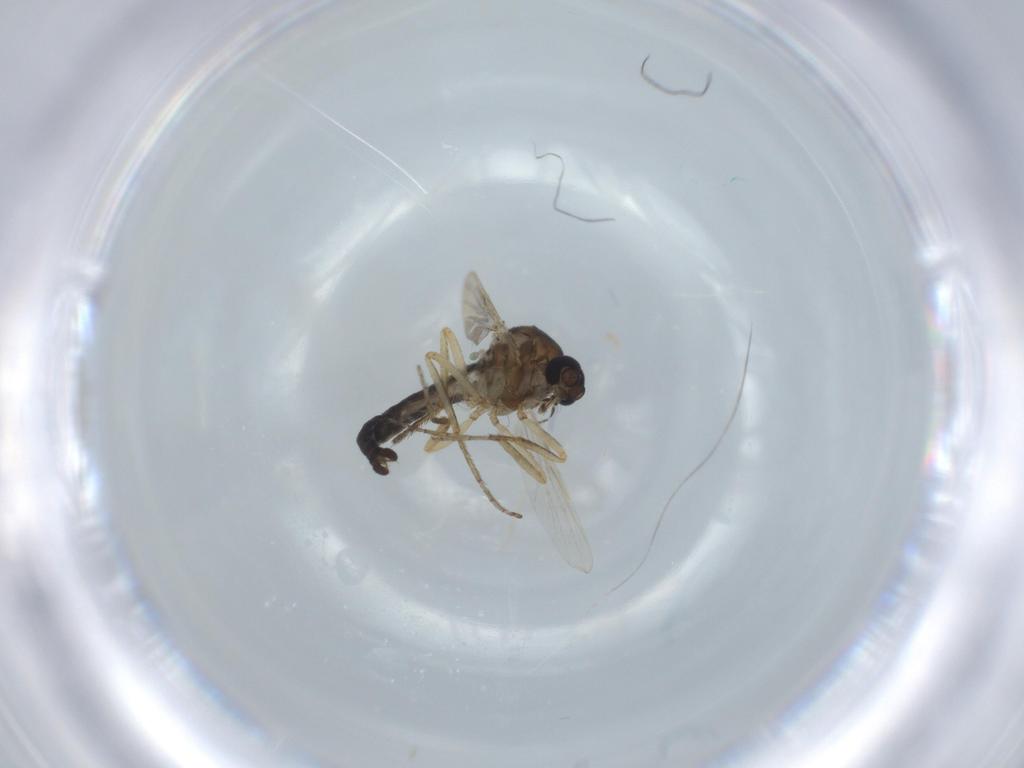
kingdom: Animalia
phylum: Arthropoda
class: Insecta
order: Diptera
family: Ceratopogonidae
